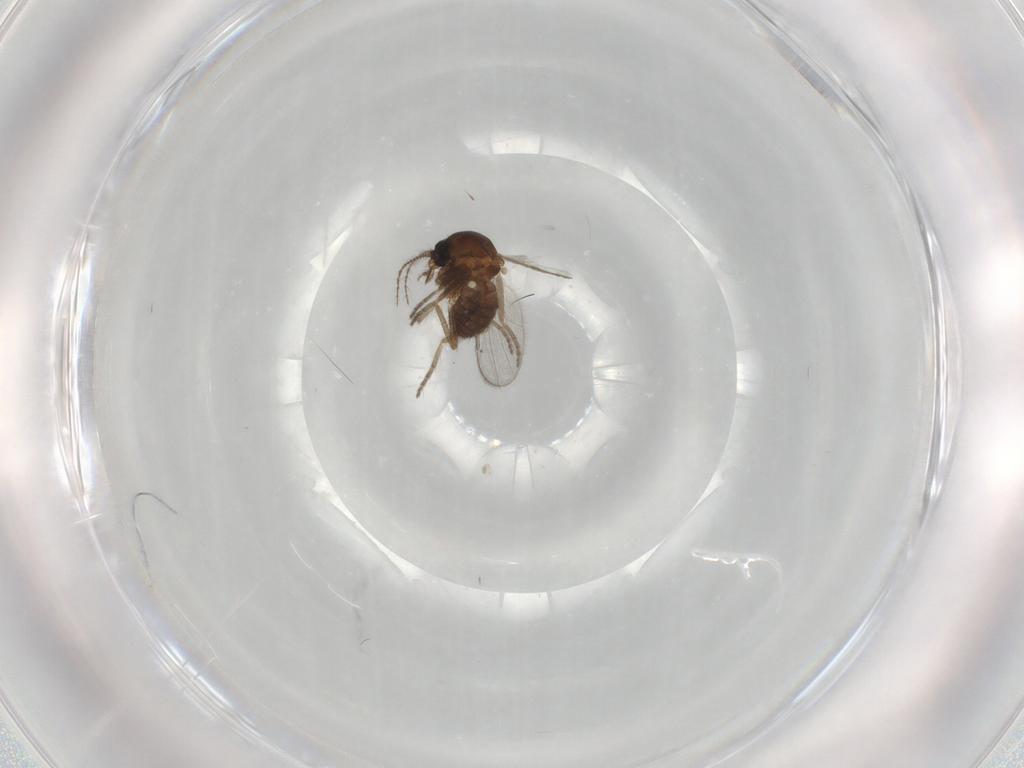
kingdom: Animalia
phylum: Arthropoda
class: Insecta
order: Diptera
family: Ceratopogonidae
